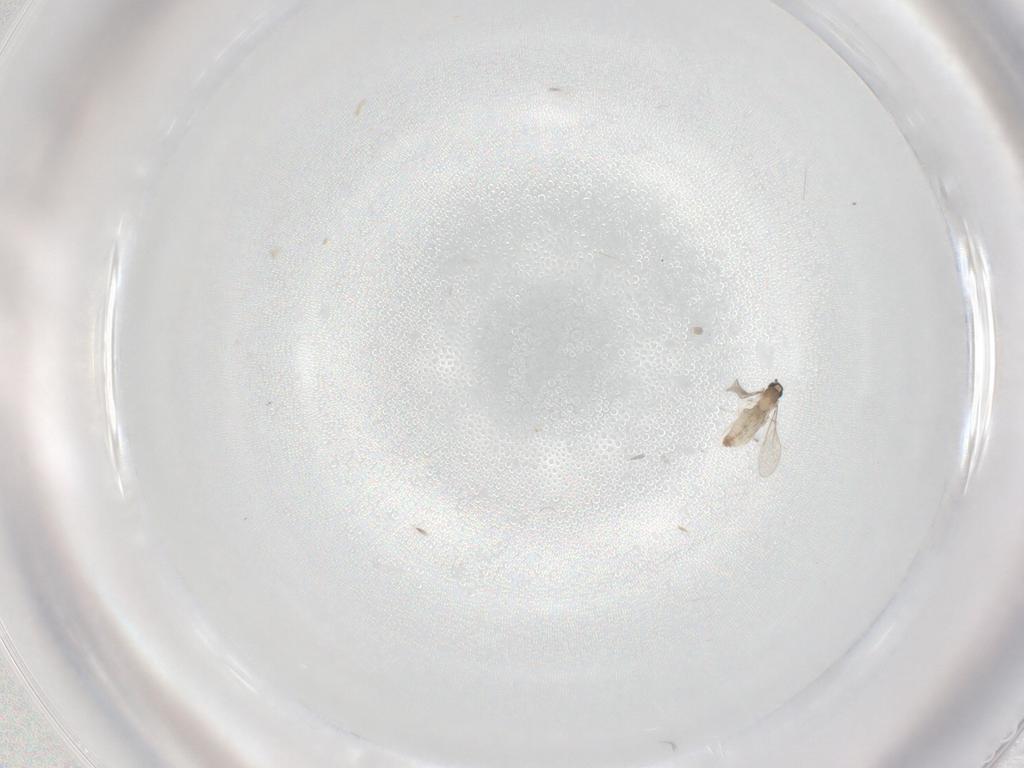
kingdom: Animalia
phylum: Arthropoda
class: Insecta
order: Diptera
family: Cecidomyiidae
